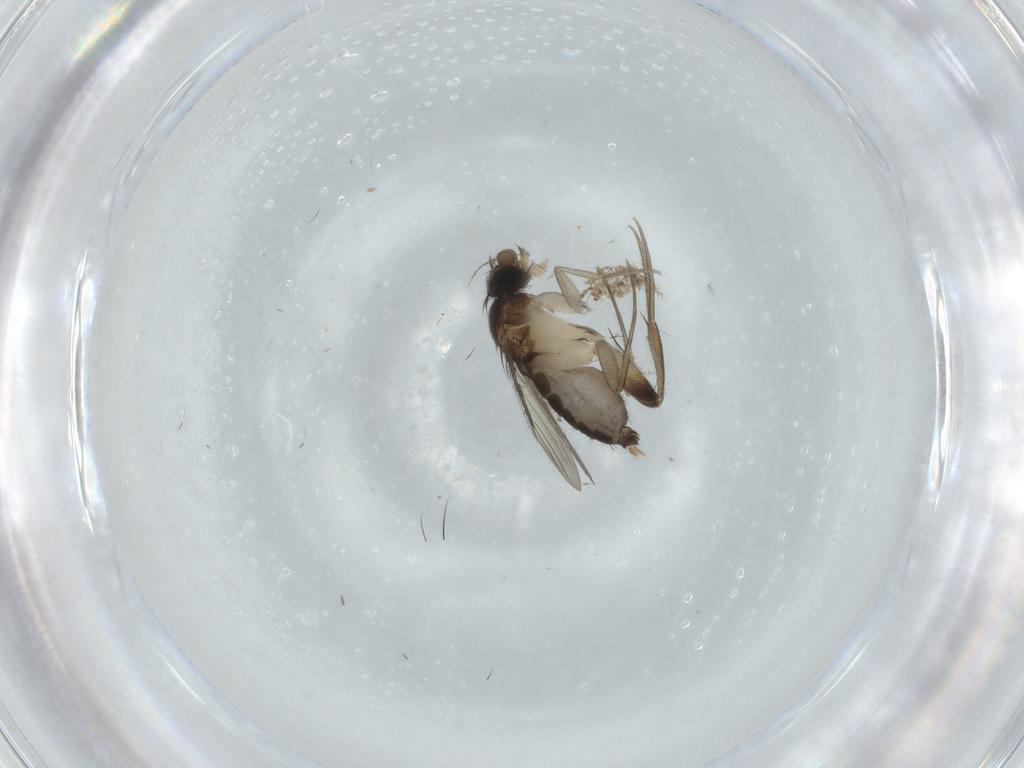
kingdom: Animalia
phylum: Arthropoda
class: Insecta
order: Diptera
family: Phoridae
